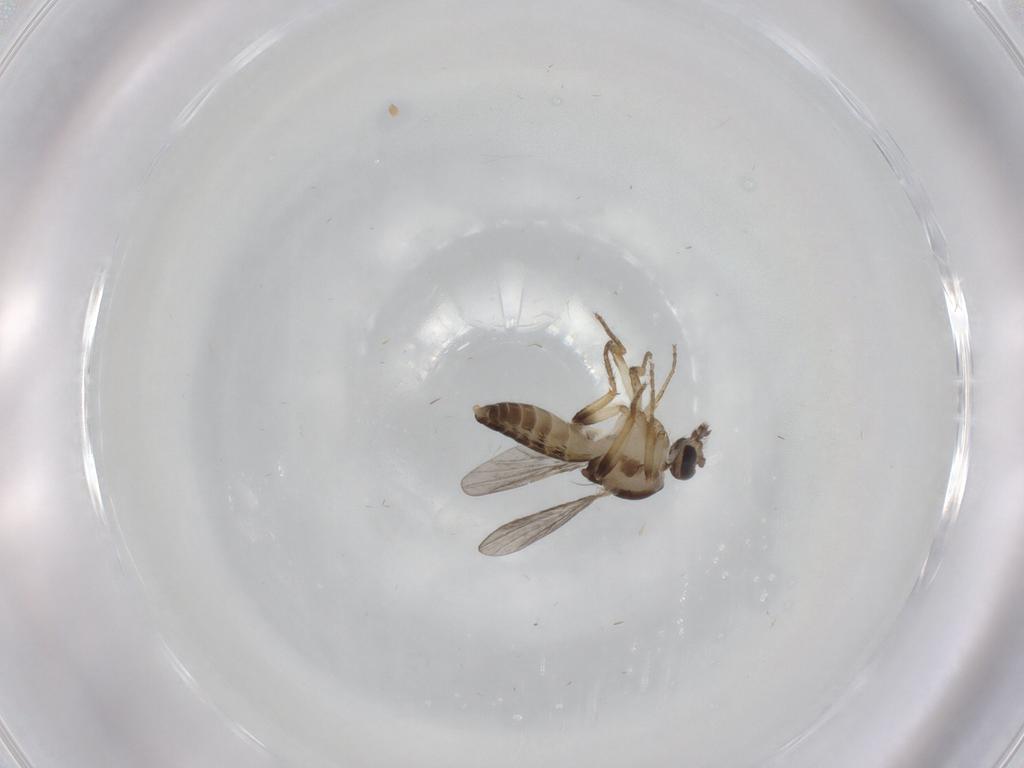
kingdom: Animalia
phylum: Arthropoda
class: Insecta
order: Diptera
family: Ceratopogonidae
